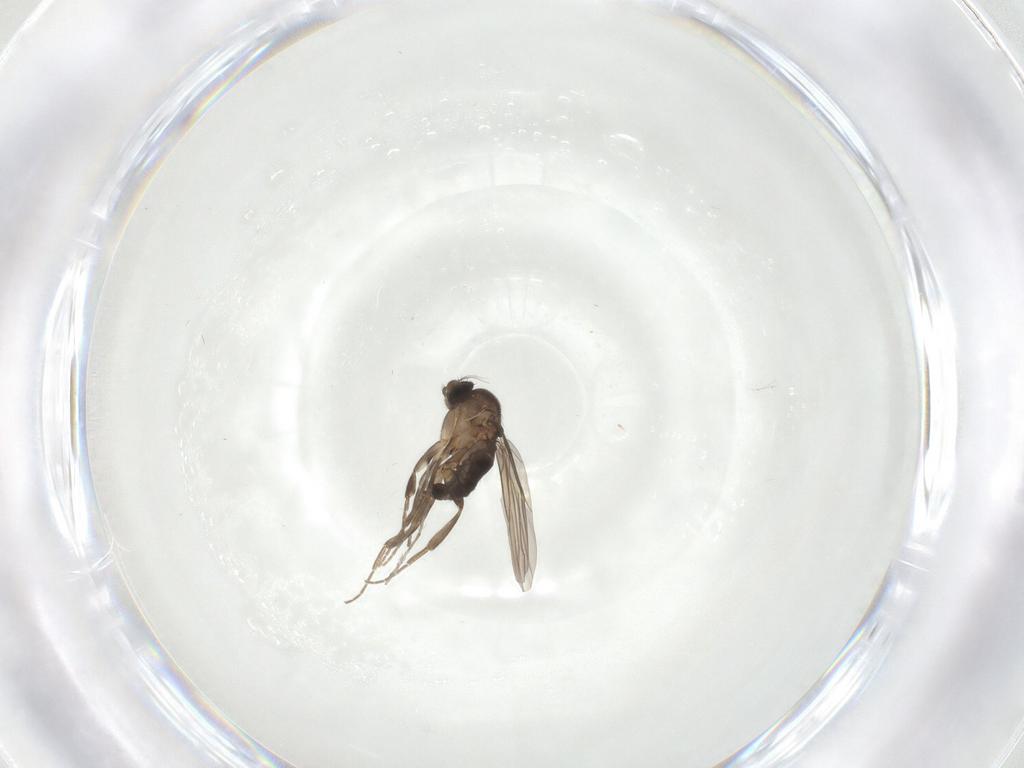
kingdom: Animalia
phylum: Arthropoda
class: Insecta
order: Diptera
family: Phoridae
